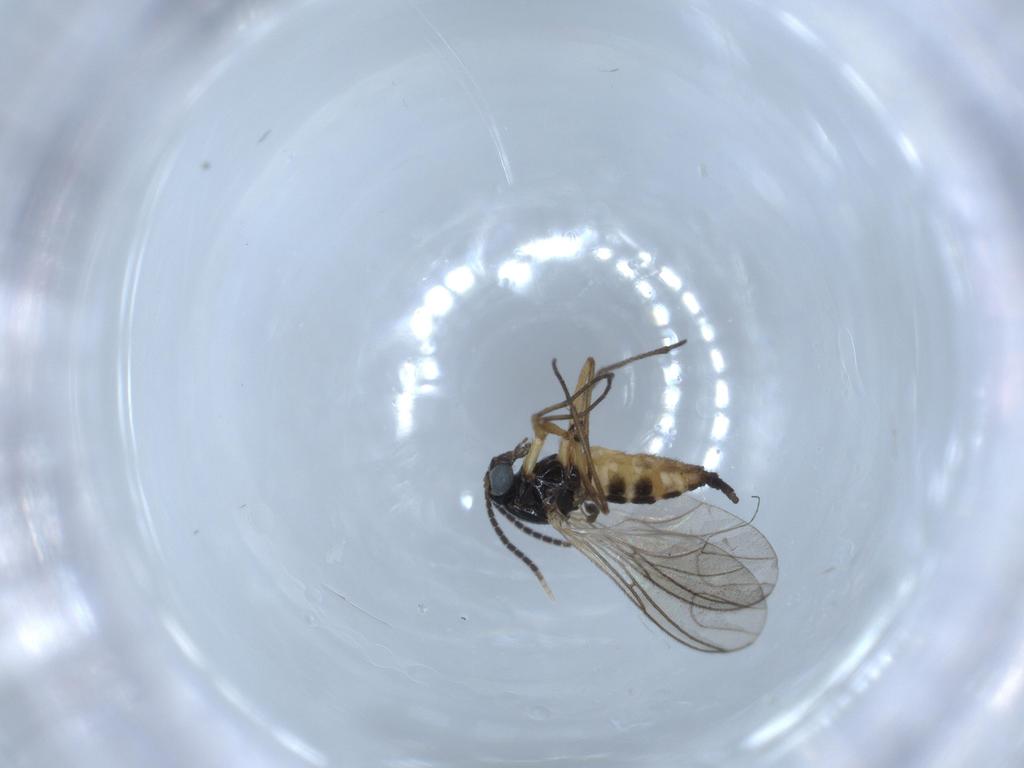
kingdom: Animalia
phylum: Arthropoda
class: Insecta
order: Diptera
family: Sciaridae
